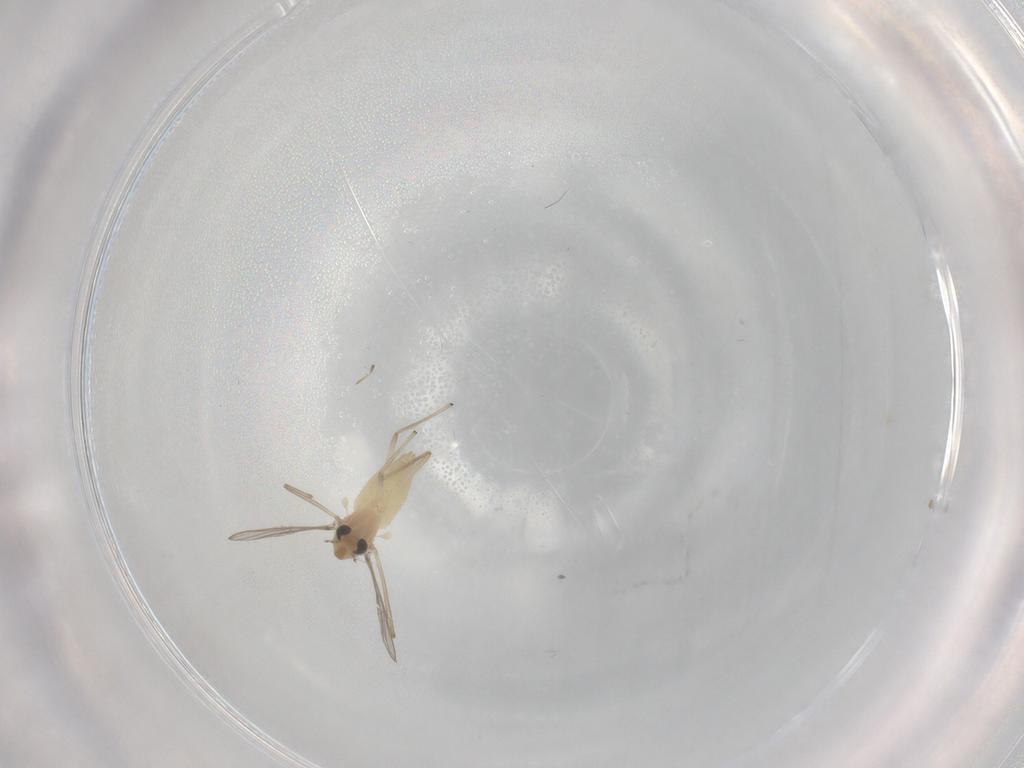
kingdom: Animalia
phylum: Arthropoda
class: Insecta
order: Diptera
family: Chironomidae
